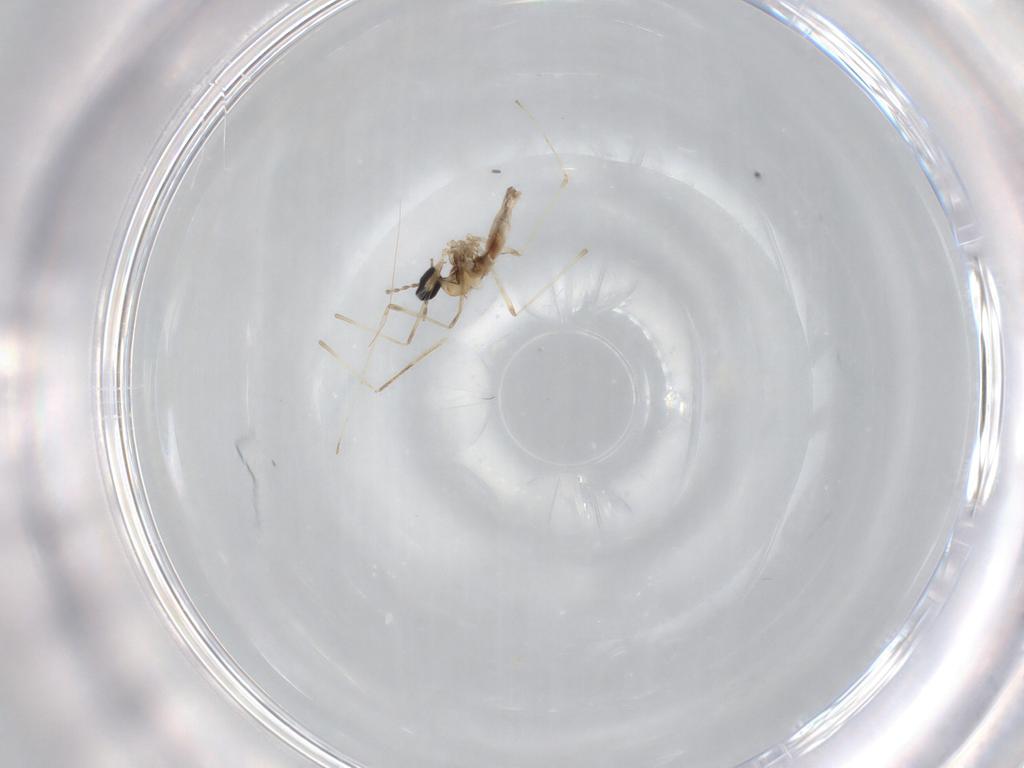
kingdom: Animalia
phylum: Arthropoda
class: Insecta
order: Diptera
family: Cecidomyiidae
